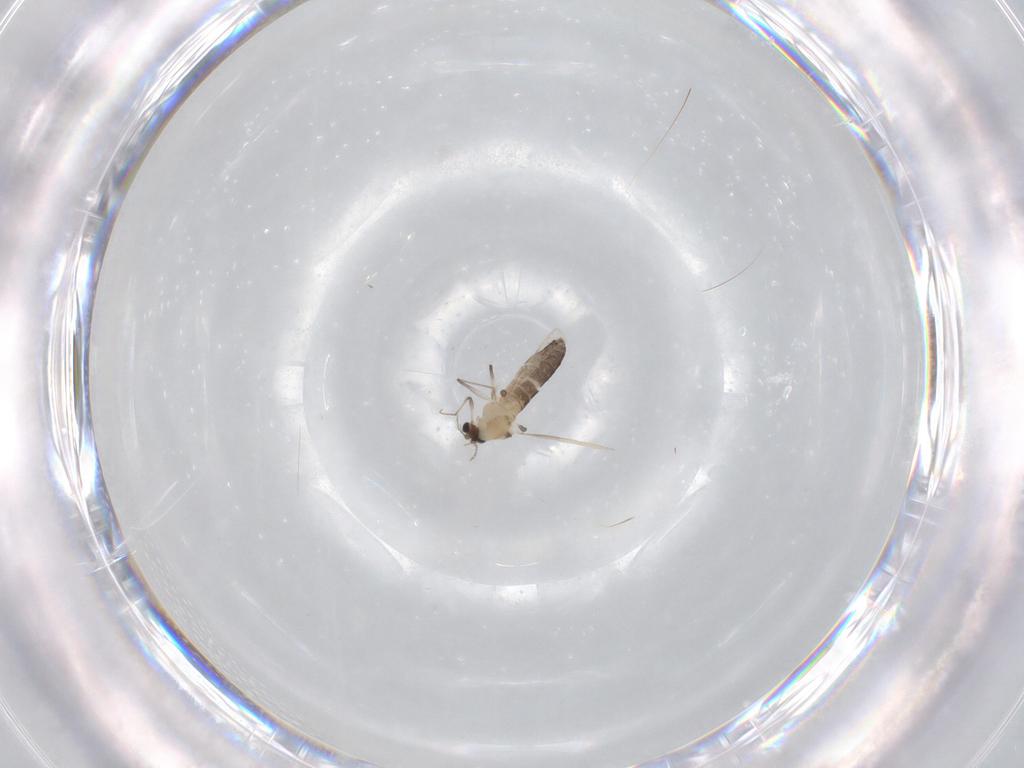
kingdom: Animalia
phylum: Arthropoda
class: Insecta
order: Diptera
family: Chironomidae
